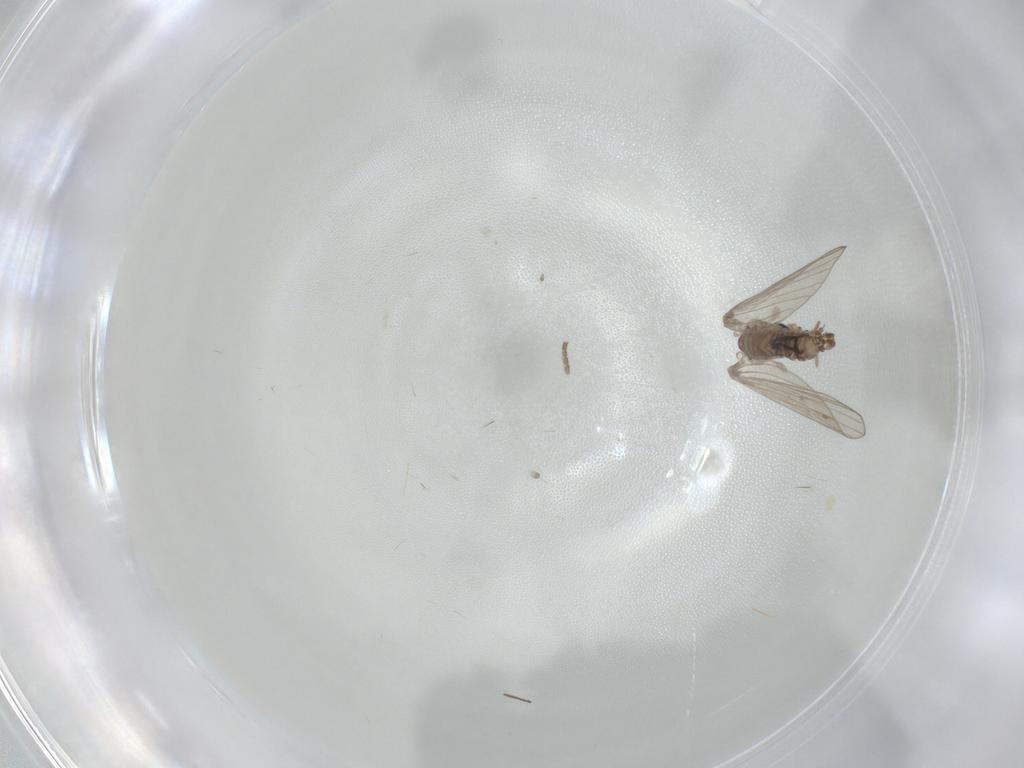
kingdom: Animalia
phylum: Arthropoda
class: Insecta
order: Diptera
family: Psychodidae
